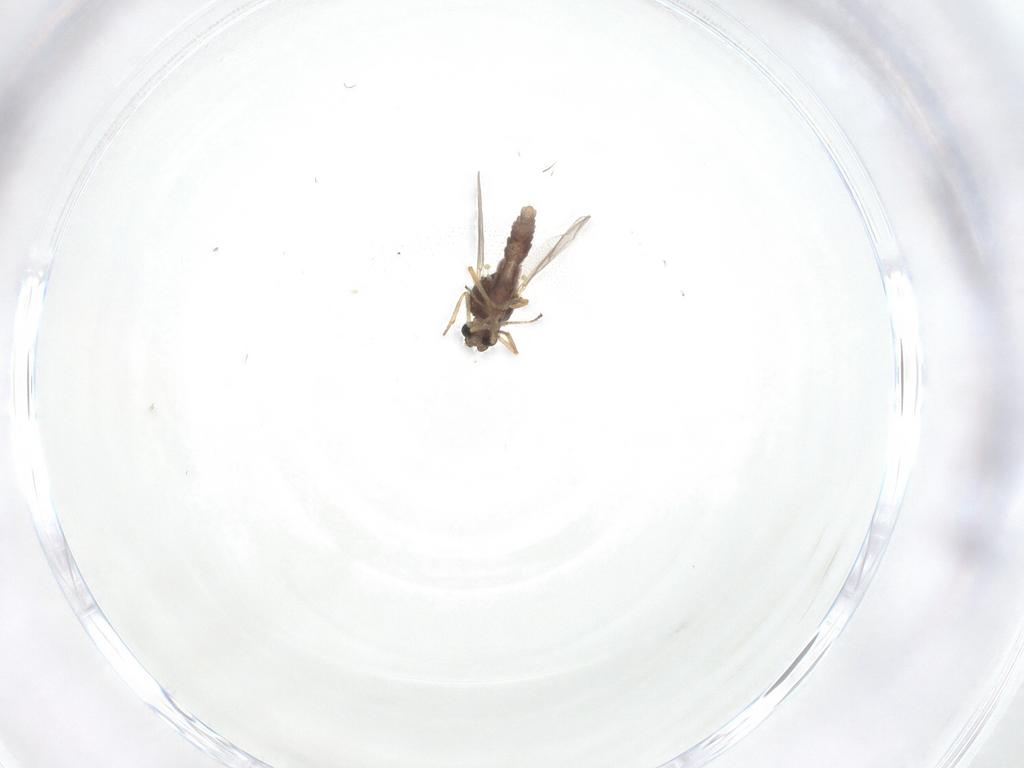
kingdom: Animalia
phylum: Arthropoda
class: Insecta
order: Diptera
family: Ceratopogonidae
